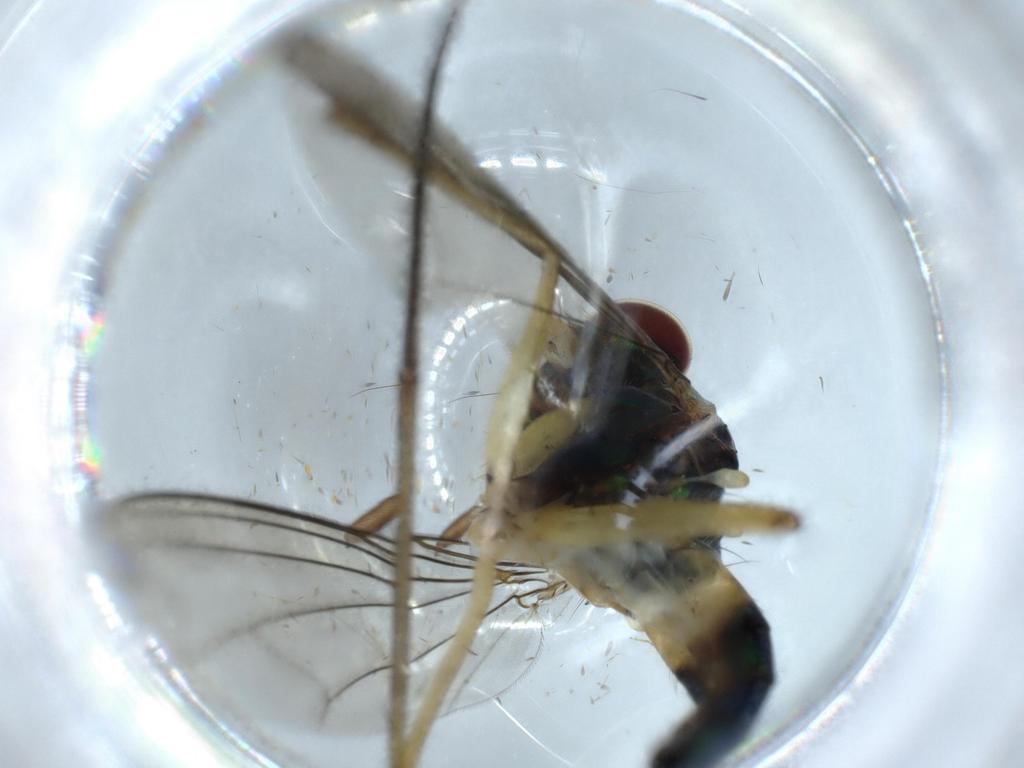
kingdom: Animalia
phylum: Arthropoda
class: Insecta
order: Diptera
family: Dolichopodidae
